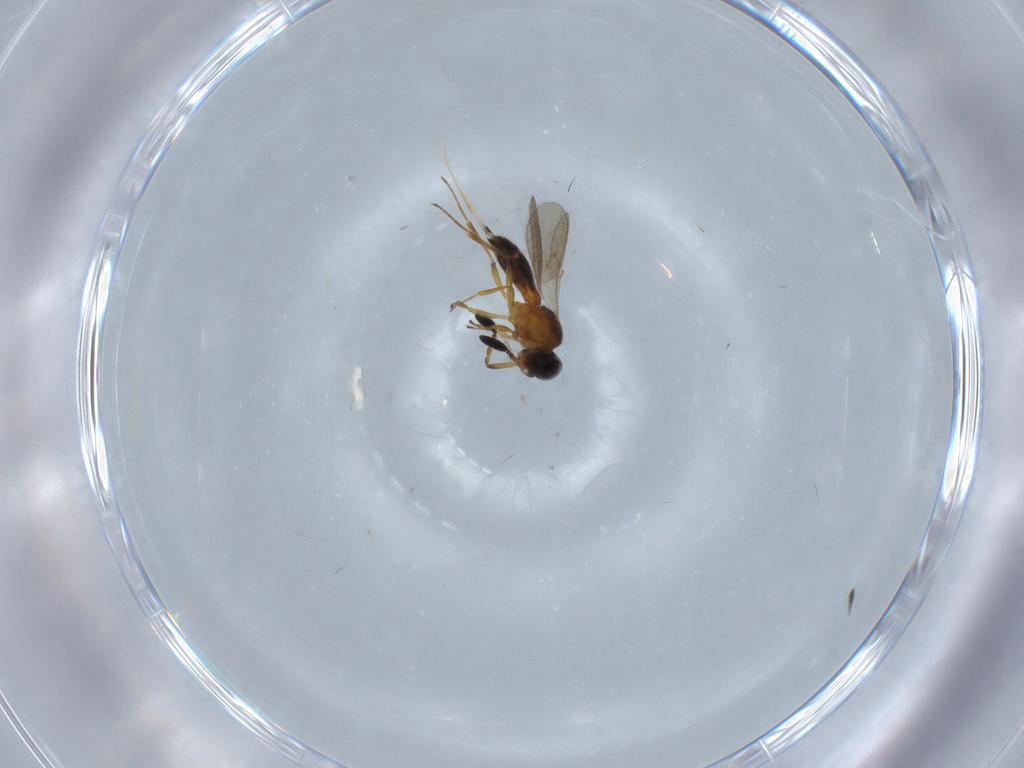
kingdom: Animalia
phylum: Arthropoda
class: Insecta
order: Hymenoptera
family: Scelionidae
